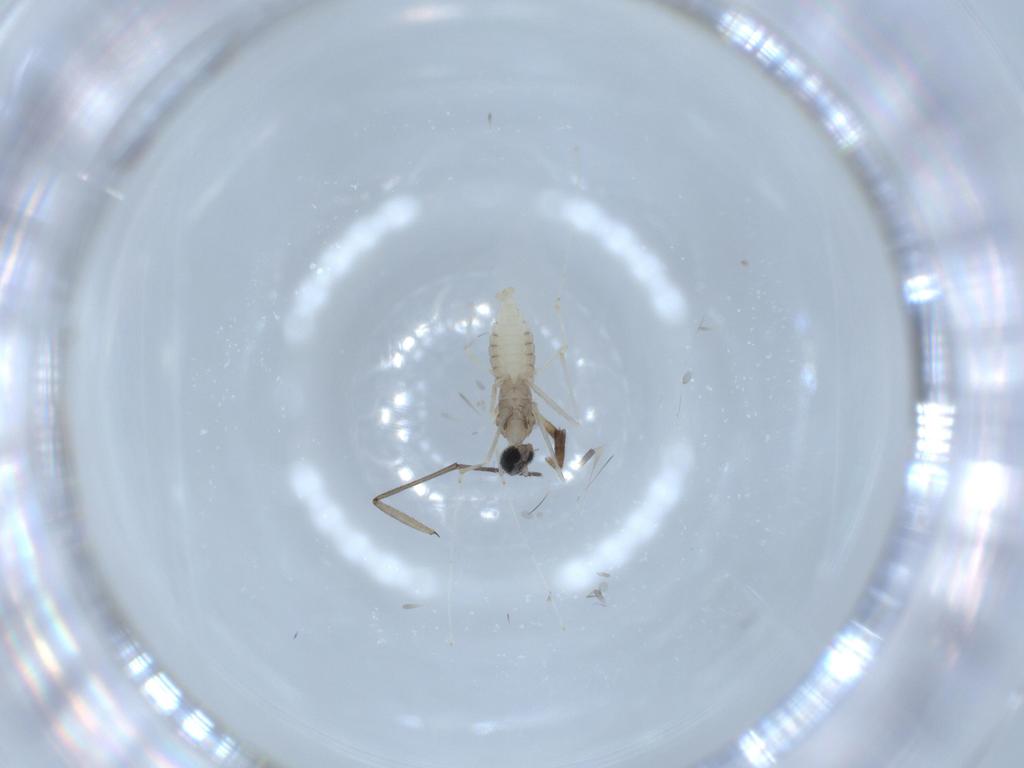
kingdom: Animalia
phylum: Arthropoda
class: Insecta
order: Diptera
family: Cecidomyiidae
